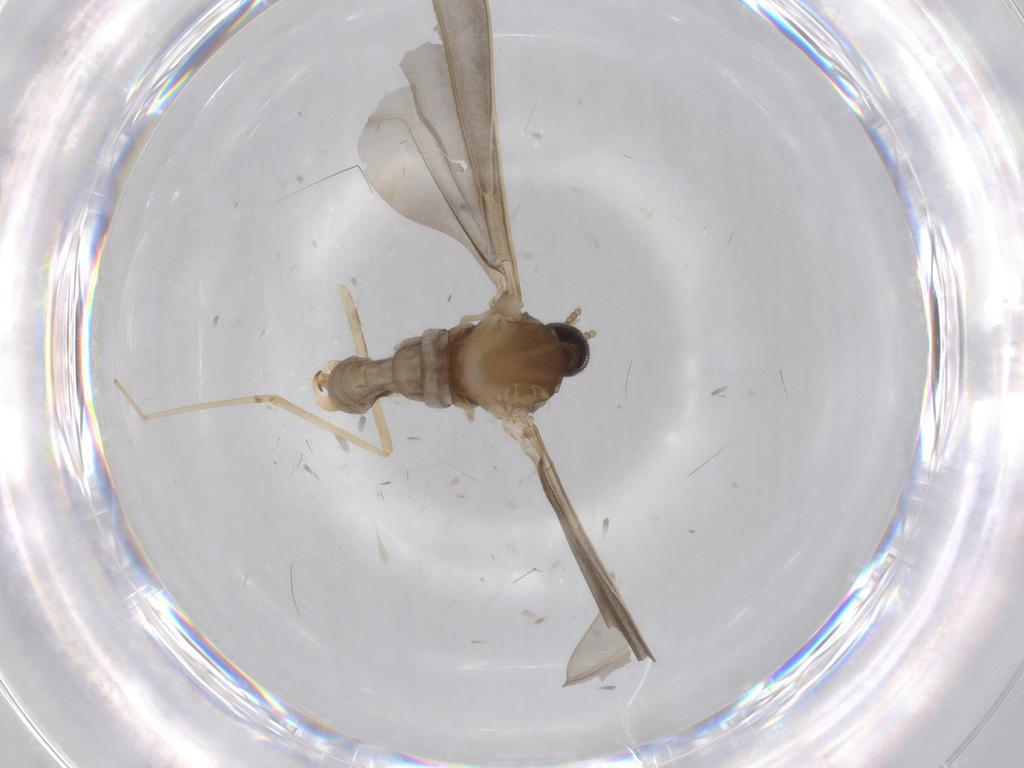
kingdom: Animalia
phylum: Arthropoda
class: Insecta
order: Diptera
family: Cecidomyiidae
